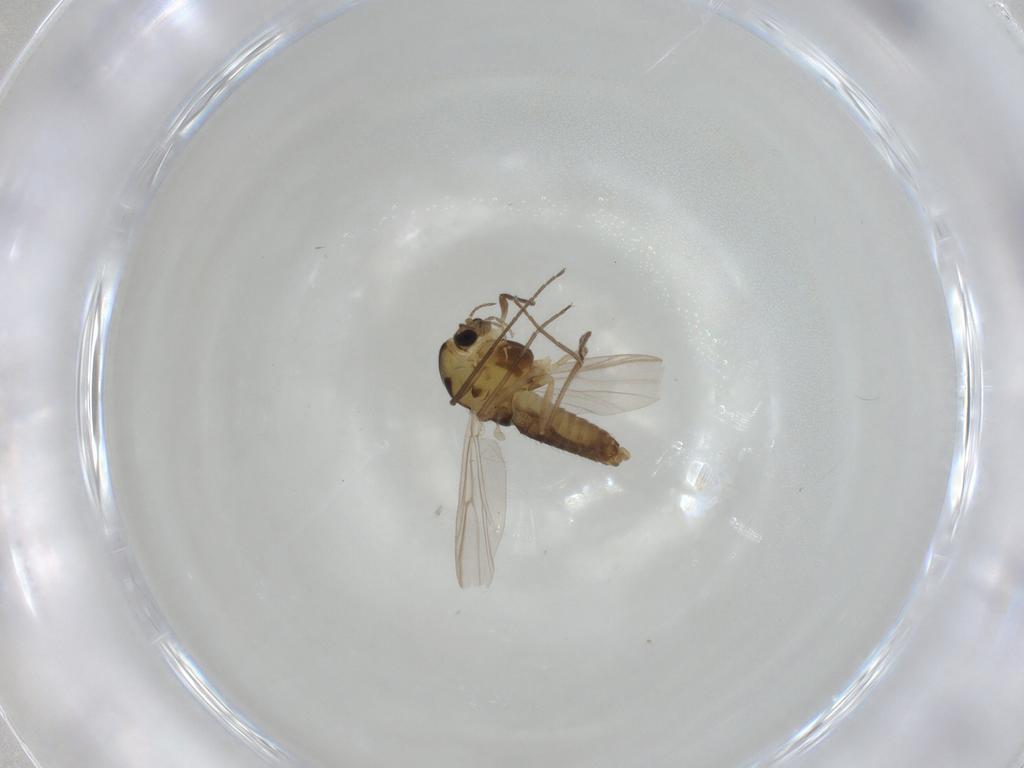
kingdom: Animalia
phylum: Arthropoda
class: Insecta
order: Diptera
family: Chironomidae
